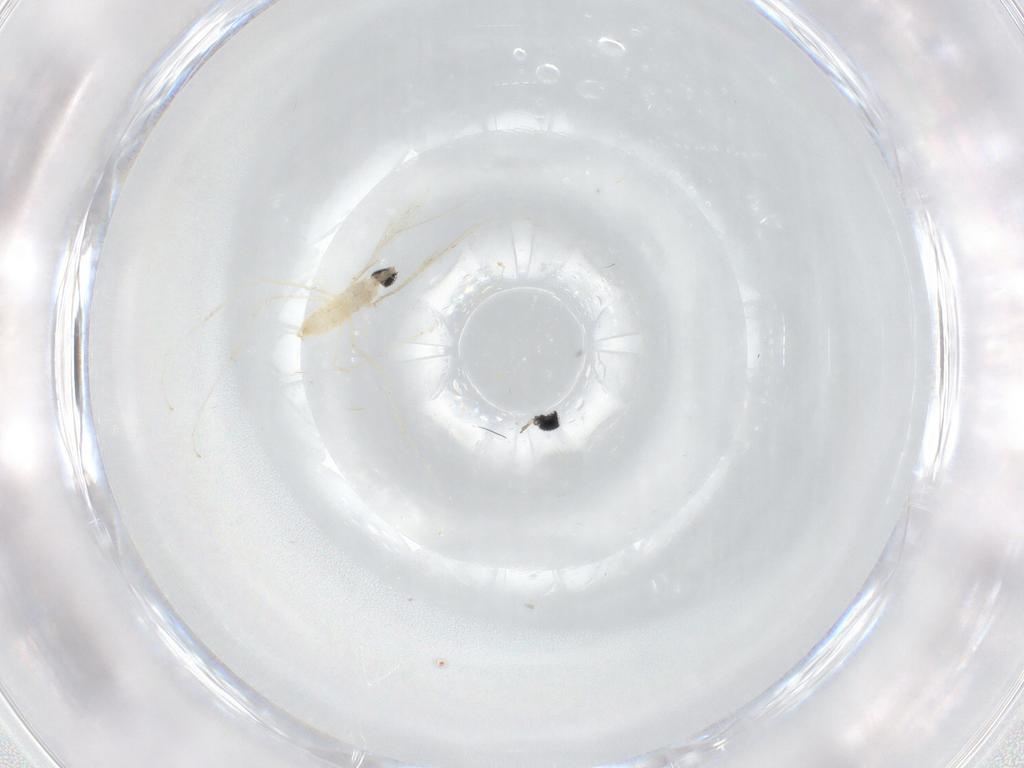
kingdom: Animalia
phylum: Arthropoda
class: Insecta
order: Diptera
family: Cecidomyiidae
